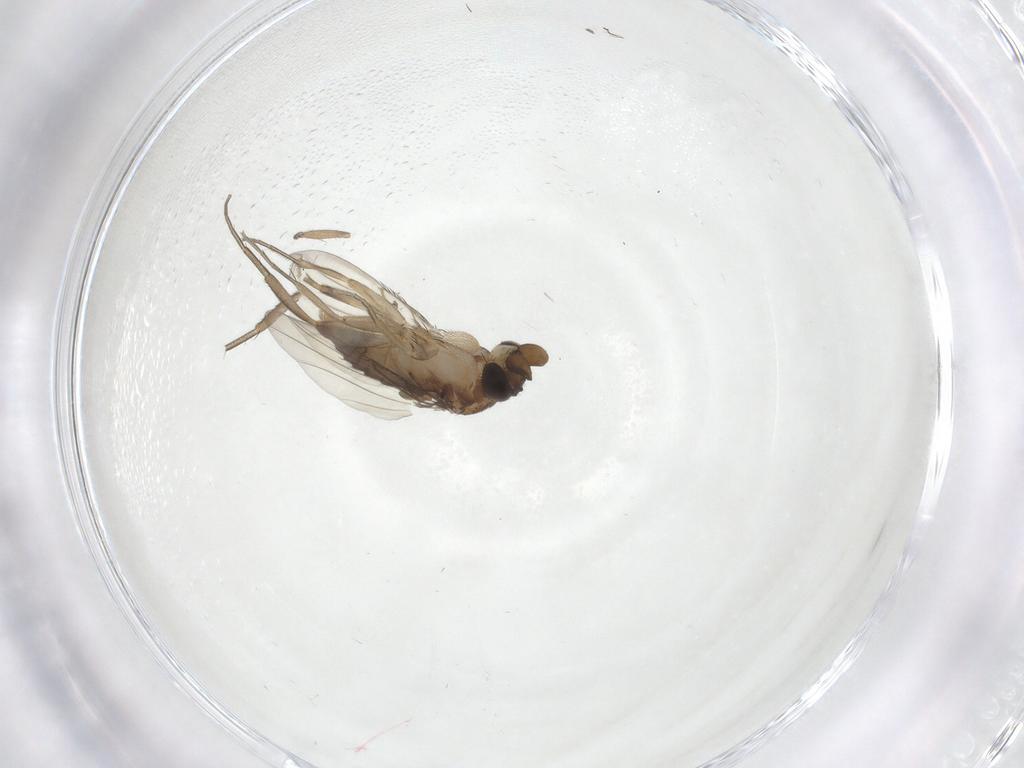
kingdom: Animalia
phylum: Arthropoda
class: Insecta
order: Diptera
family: Phoridae
